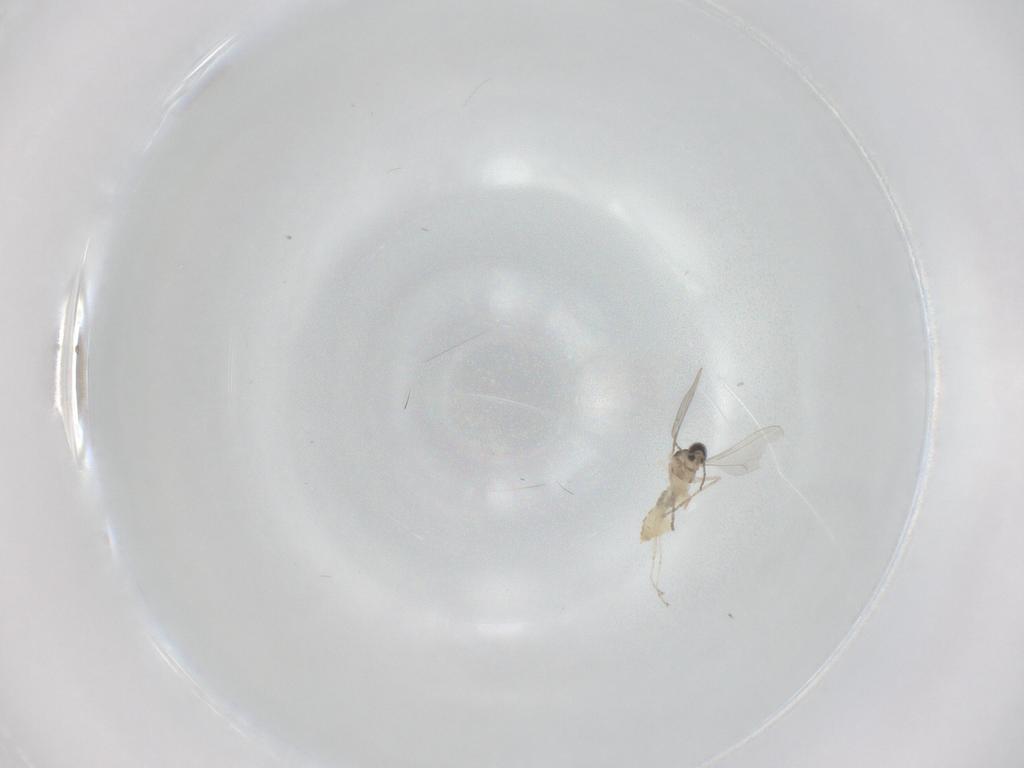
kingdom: Animalia
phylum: Arthropoda
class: Insecta
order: Diptera
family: Cecidomyiidae
